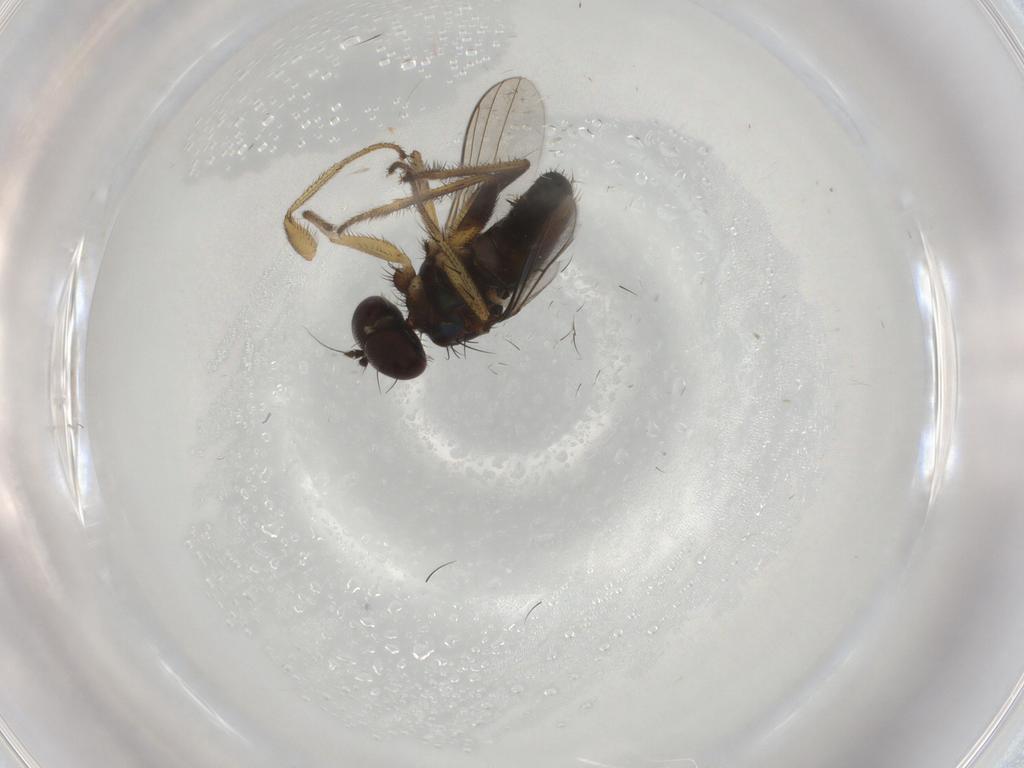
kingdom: Animalia
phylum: Arthropoda
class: Insecta
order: Diptera
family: Dolichopodidae
